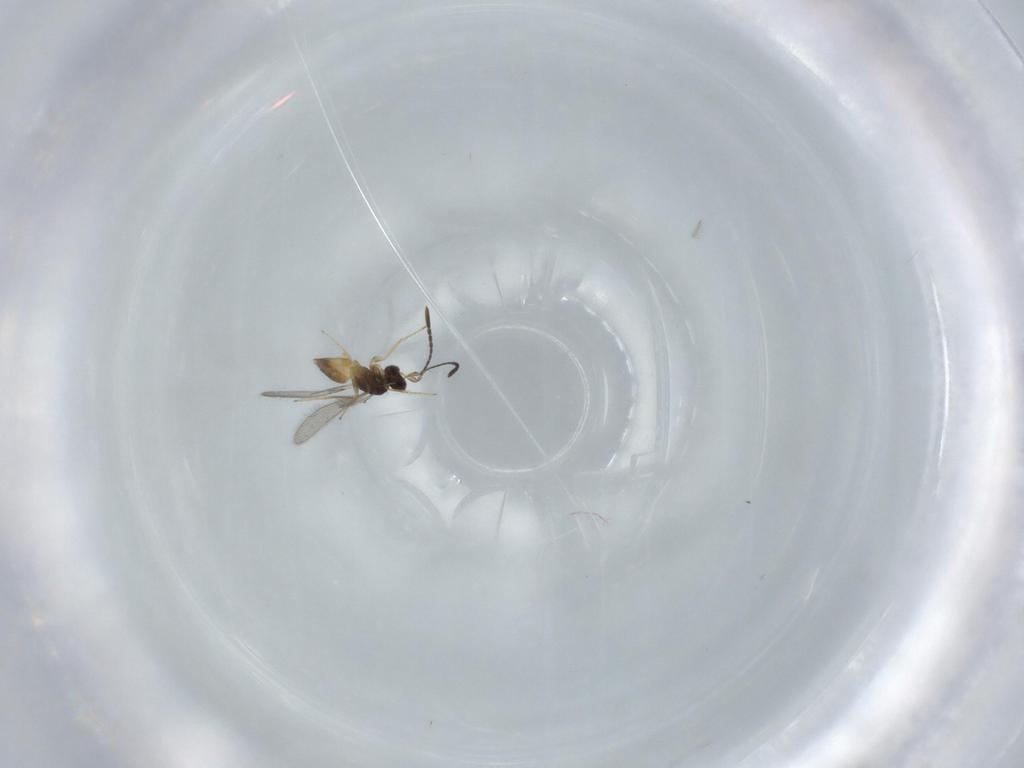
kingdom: Animalia
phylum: Arthropoda
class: Insecta
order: Hymenoptera
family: Mymaridae
